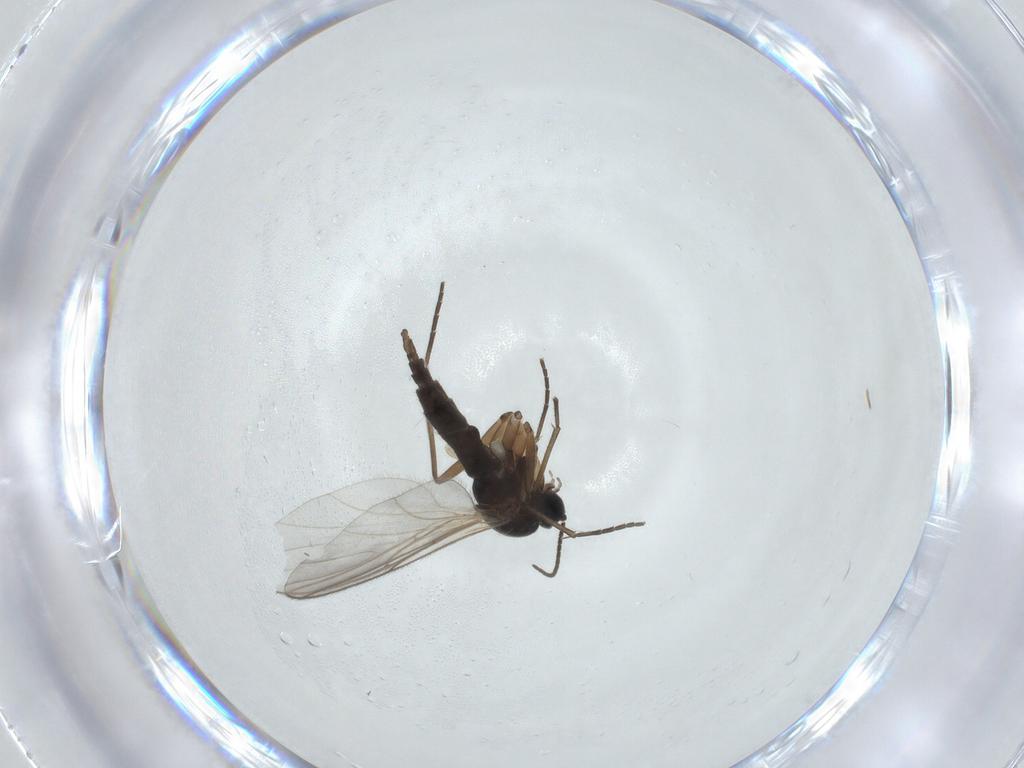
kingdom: Animalia
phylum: Arthropoda
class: Insecta
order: Diptera
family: Sciaridae
